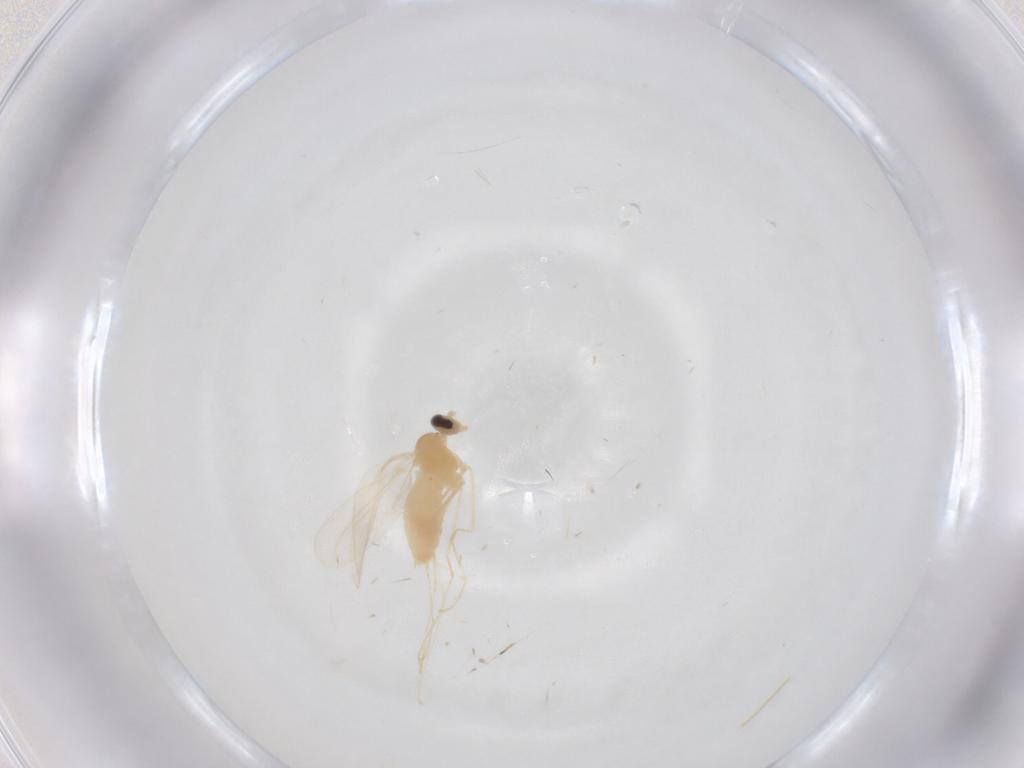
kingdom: Animalia
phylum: Arthropoda
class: Insecta
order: Diptera
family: Cecidomyiidae
